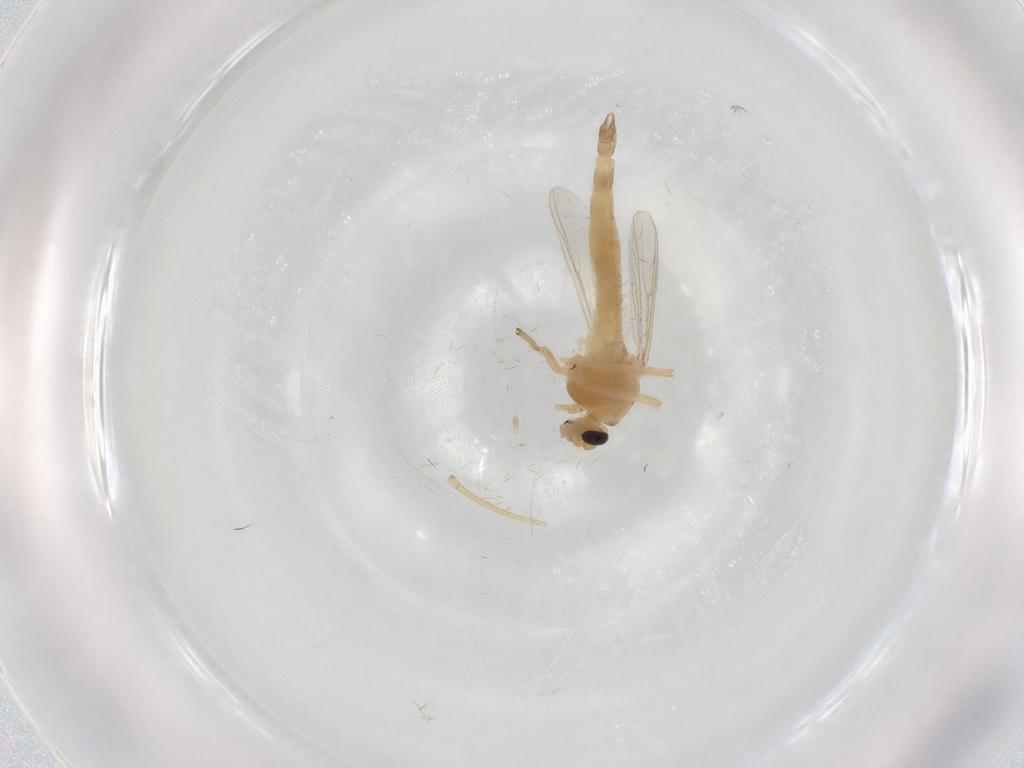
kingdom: Animalia
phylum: Arthropoda
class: Insecta
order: Diptera
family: Chironomidae
